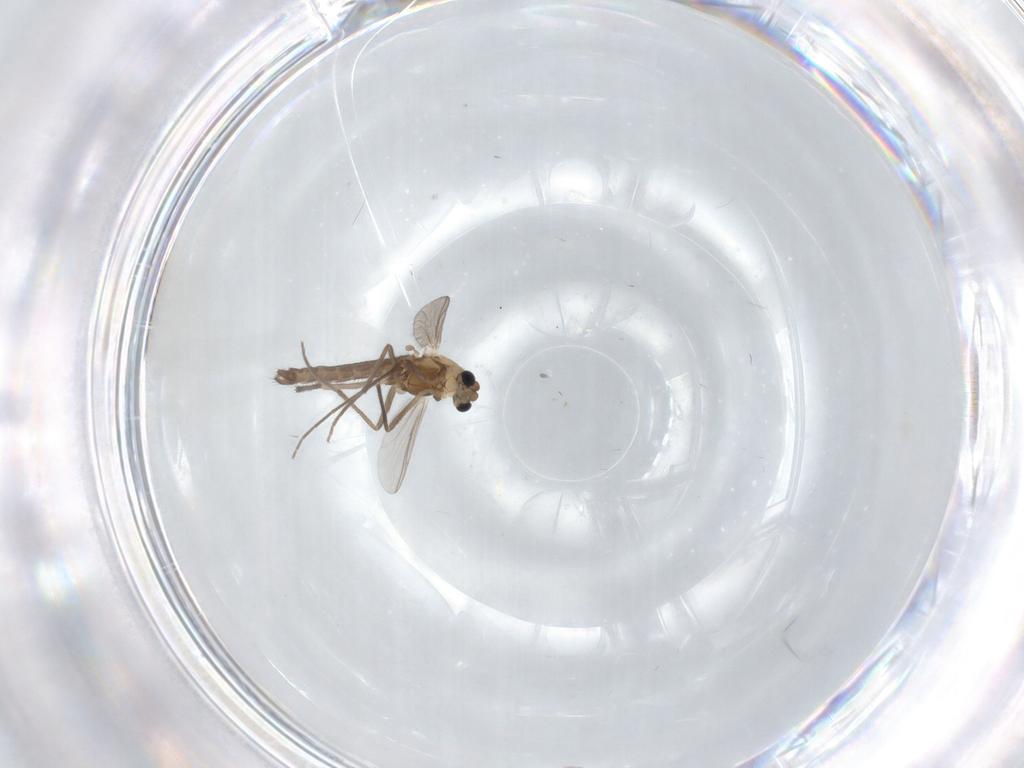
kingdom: Animalia
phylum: Arthropoda
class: Insecta
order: Diptera
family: Chironomidae
